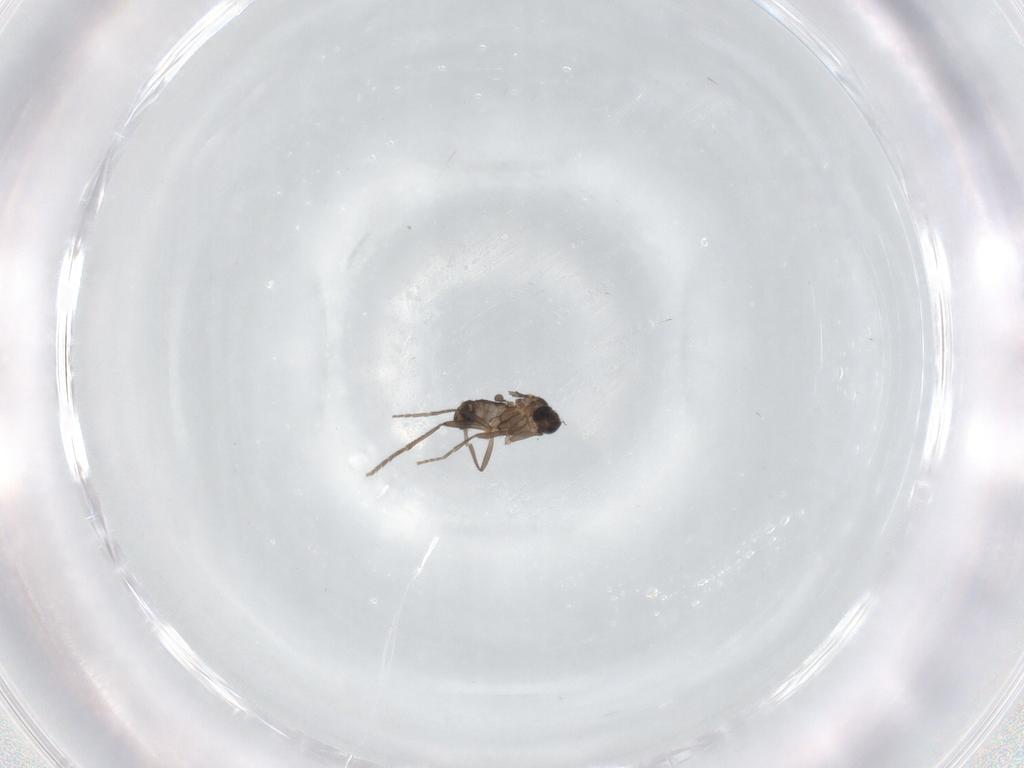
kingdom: Animalia
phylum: Arthropoda
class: Insecta
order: Diptera
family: Phoridae
